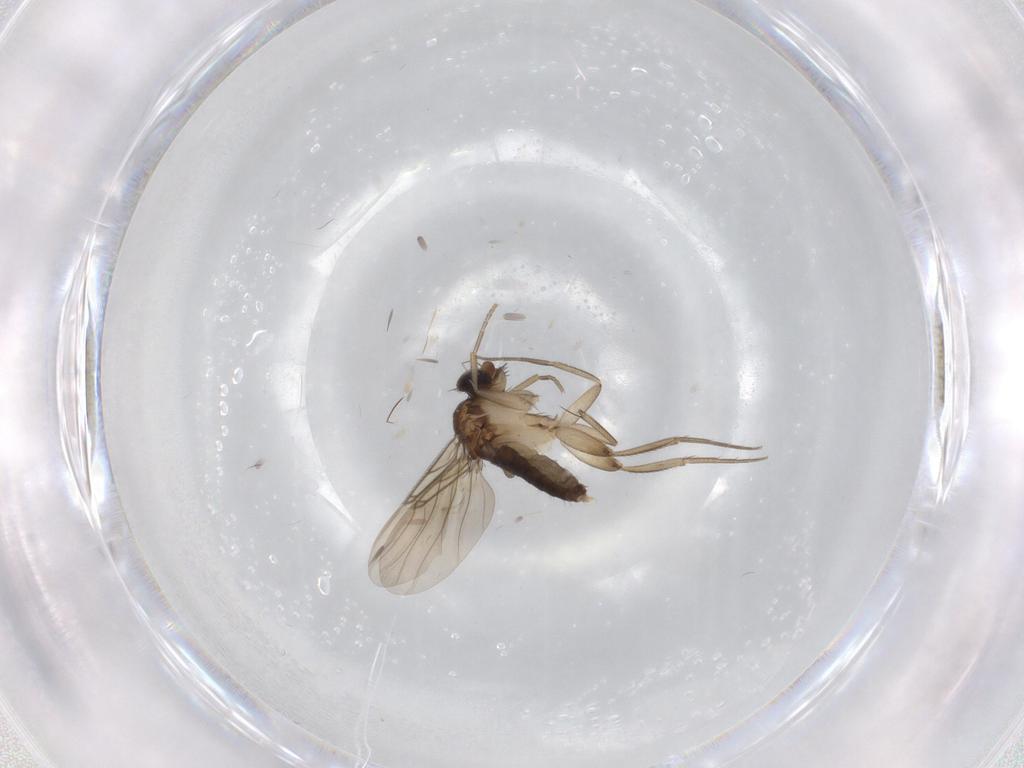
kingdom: Animalia
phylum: Arthropoda
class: Insecta
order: Diptera
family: Phoridae
